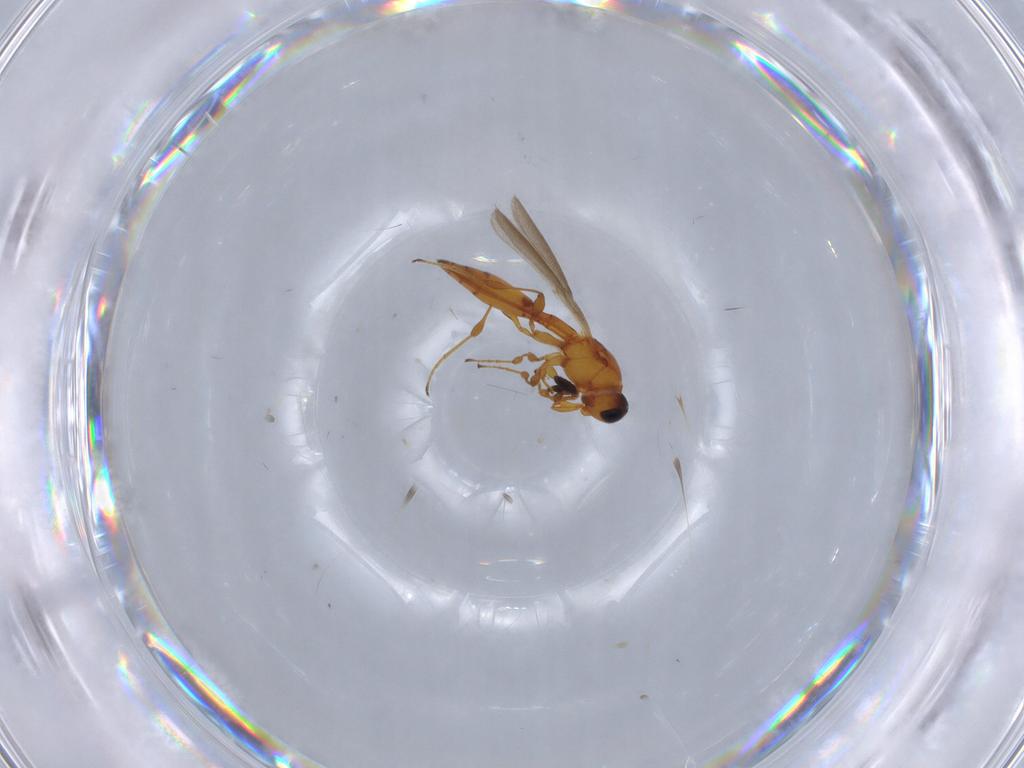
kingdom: Animalia
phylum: Arthropoda
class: Insecta
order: Hymenoptera
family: Scelionidae
